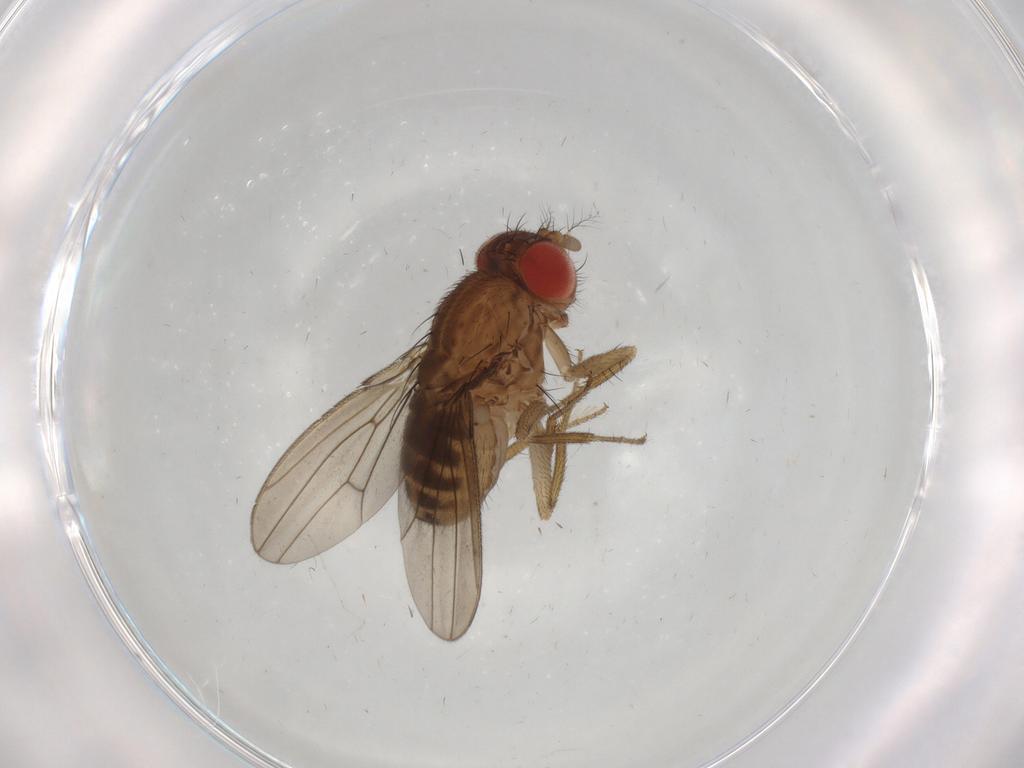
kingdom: Animalia
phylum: Arthropoda
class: Insecta
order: Diptera
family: Drosophilidae
